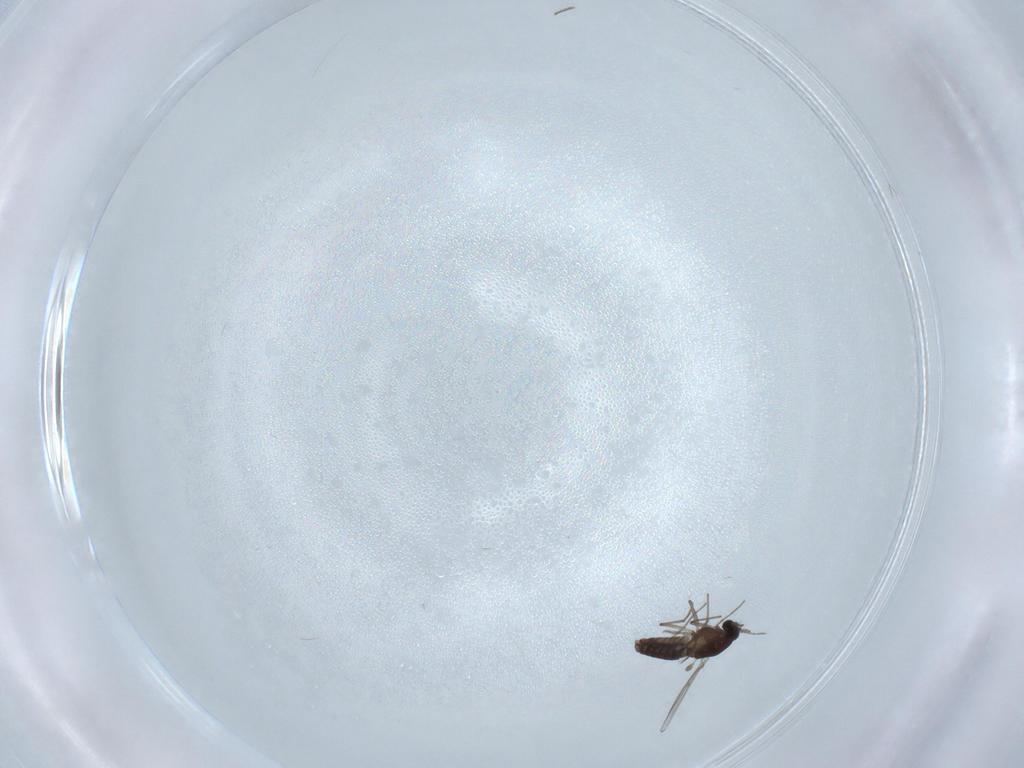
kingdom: Animalia
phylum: Arthropoda
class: Insecta
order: Diptera
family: Chironomidae
